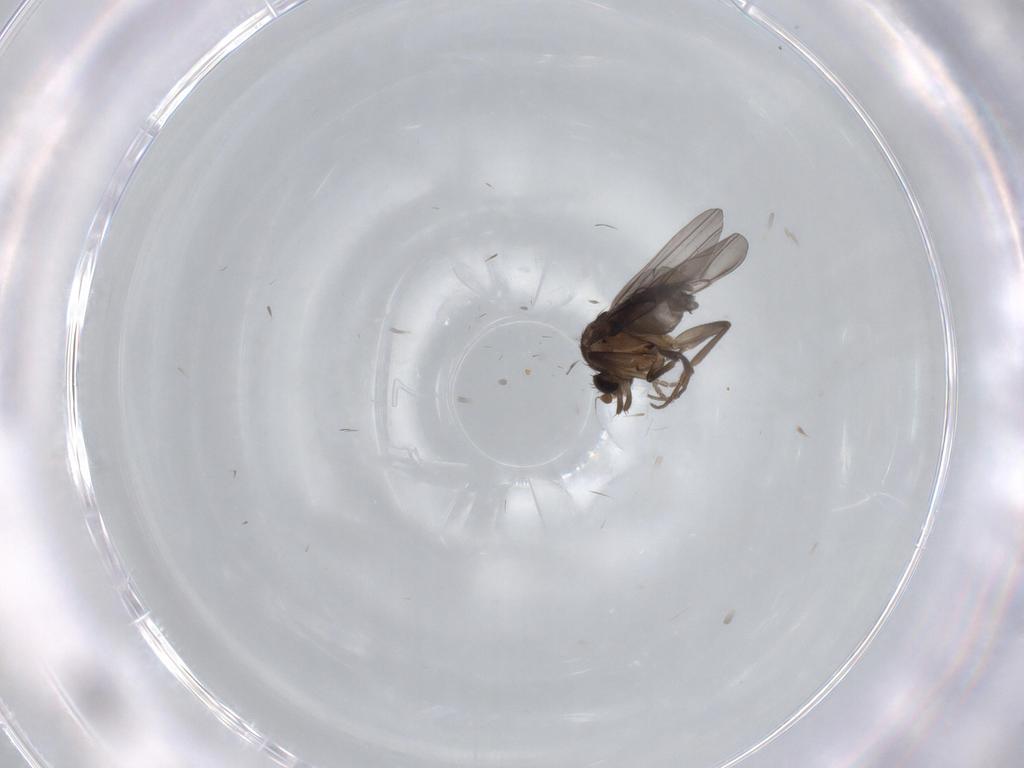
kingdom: Animalia
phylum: Arthropoda
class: Insecta
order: Diptera
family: Phoridae
